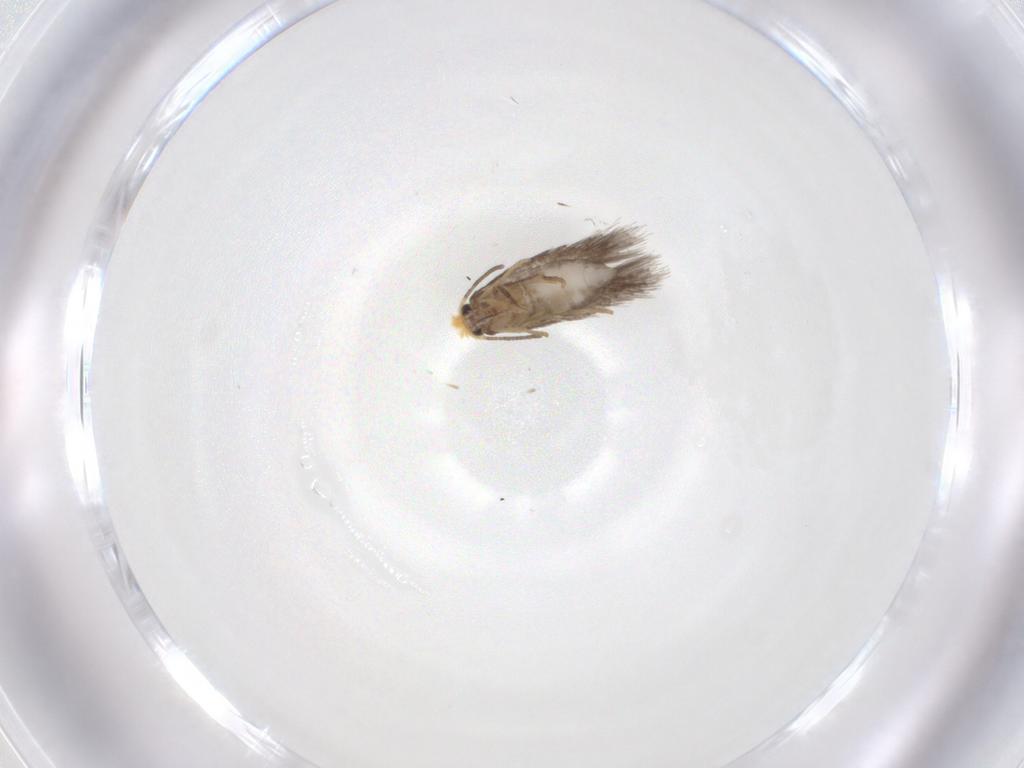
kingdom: Animalia
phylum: Arthropoda
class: Insecta
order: Lepidoptera
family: Nepticulidae
